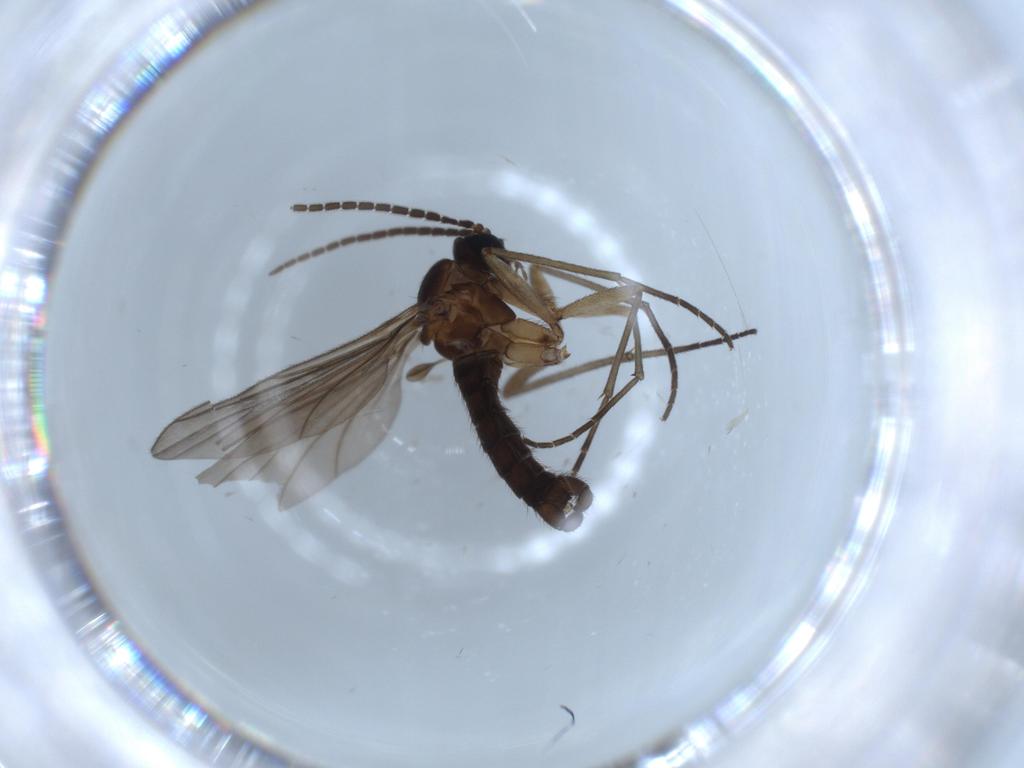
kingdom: Animalia
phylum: Arthropoda
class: Insecta
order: Diptera
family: Sciaridae
